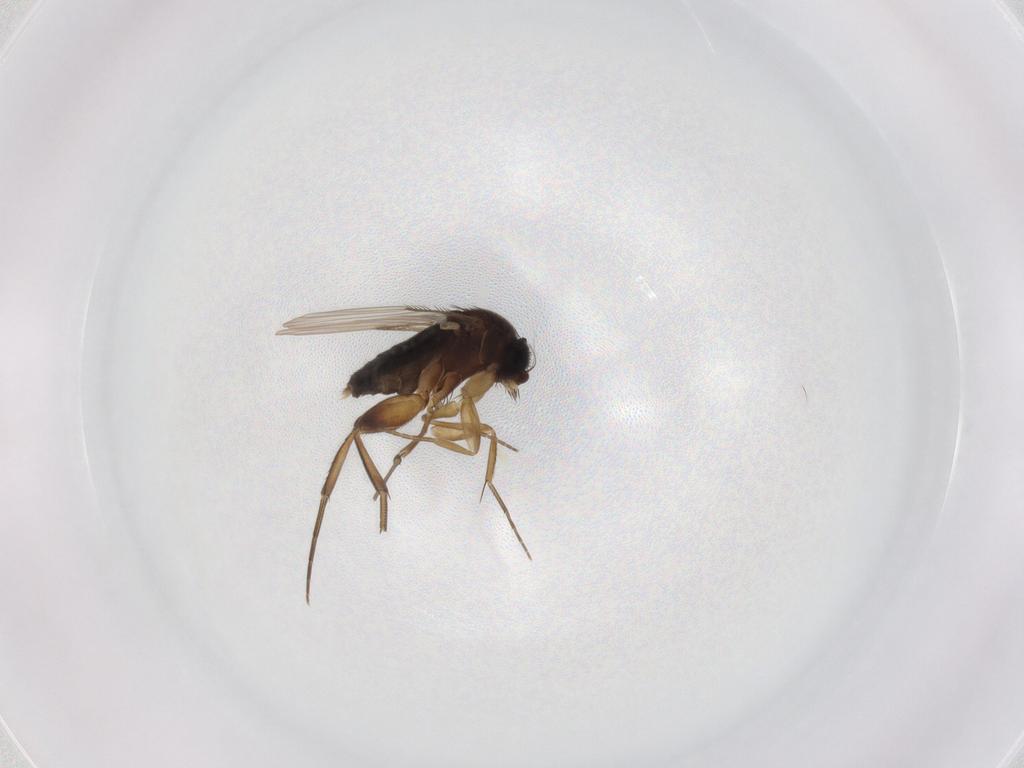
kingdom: Animalia
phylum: Arthropoda
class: Insecta
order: Diptera
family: Phoridae
